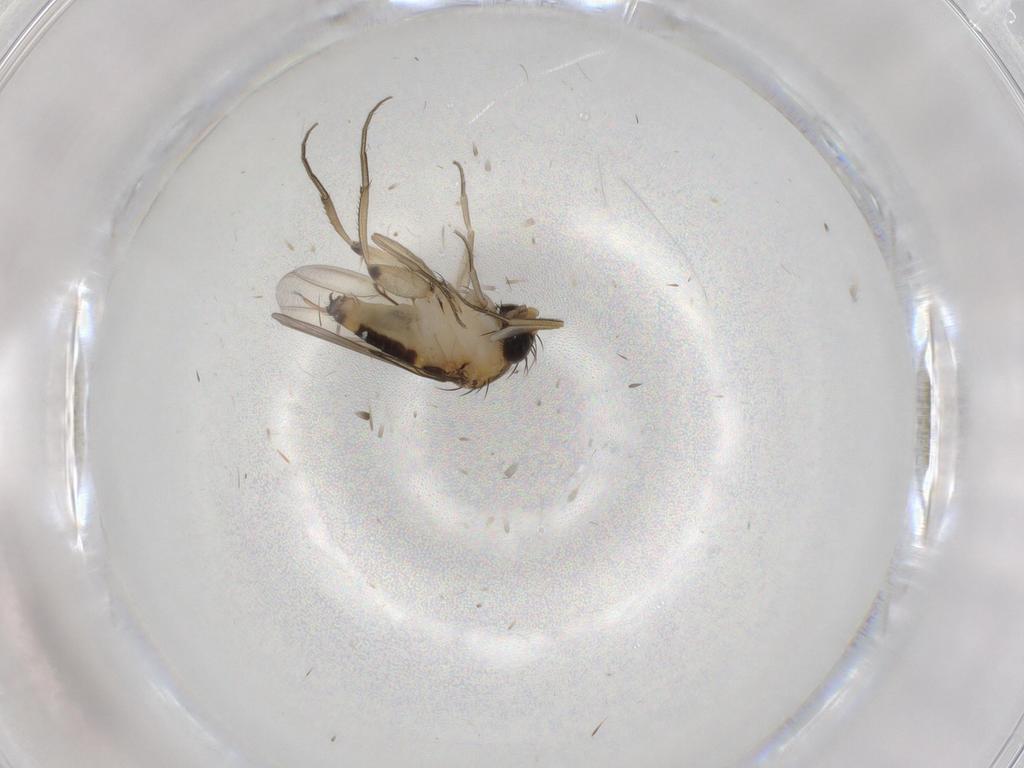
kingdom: Animalia
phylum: Arthropoda
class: Insecta
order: Diptera
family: Phoridae
